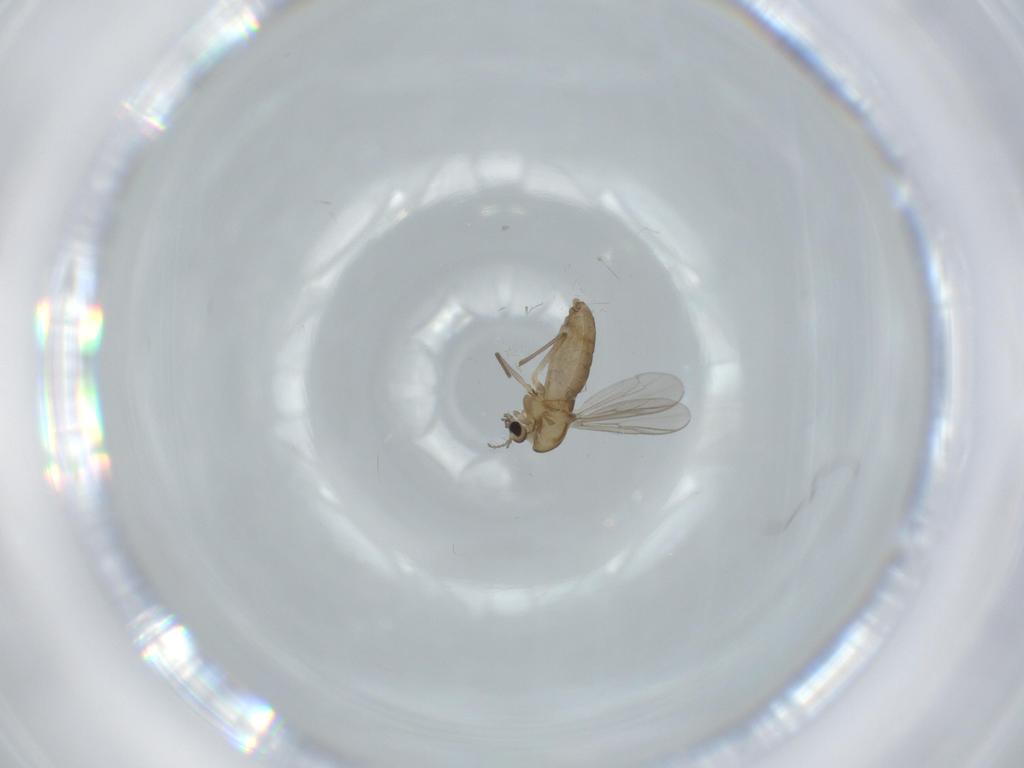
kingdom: Animalia
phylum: Arthropoda
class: Insecta
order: Diptera
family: Chironomidae
